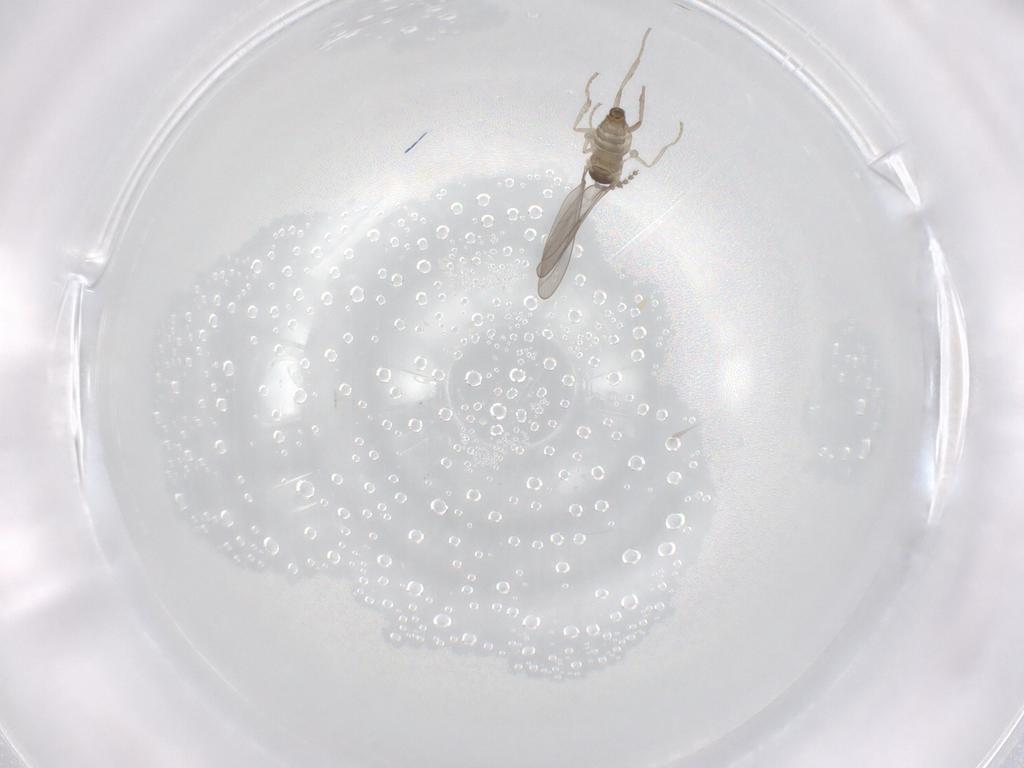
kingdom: Animalia
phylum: Arthropoda
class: Insecta
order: Diptera
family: Cecidomyiidae
